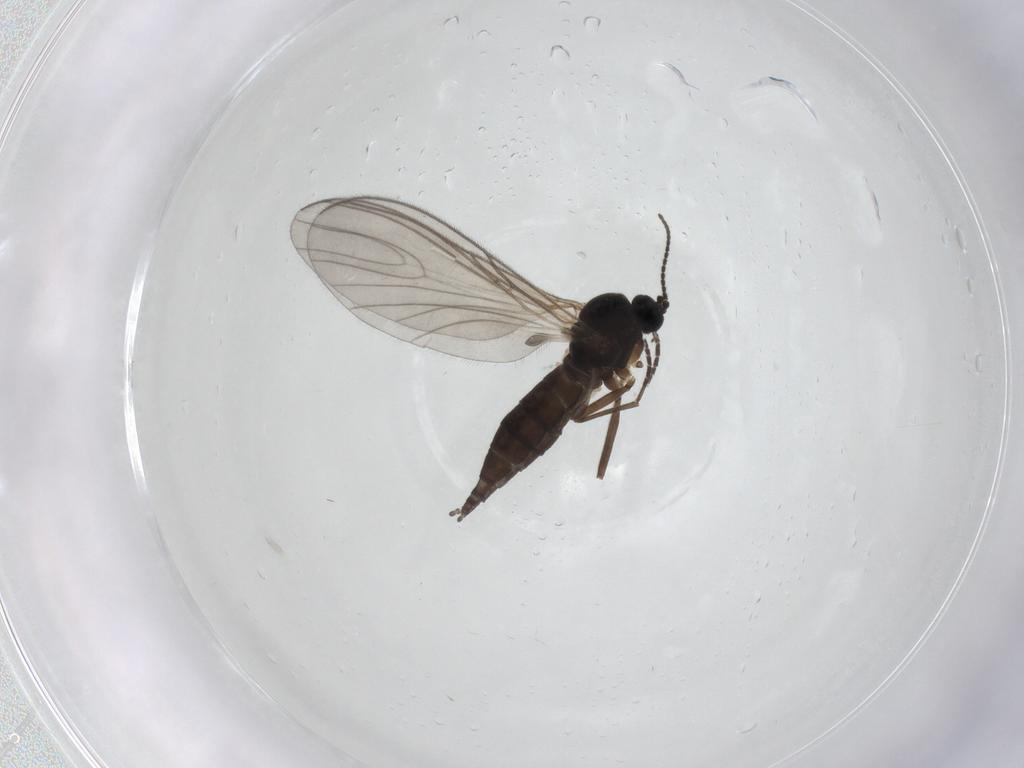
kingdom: Animalia
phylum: Arthropoda
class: Insecta
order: Diptera
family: Sciaridae
